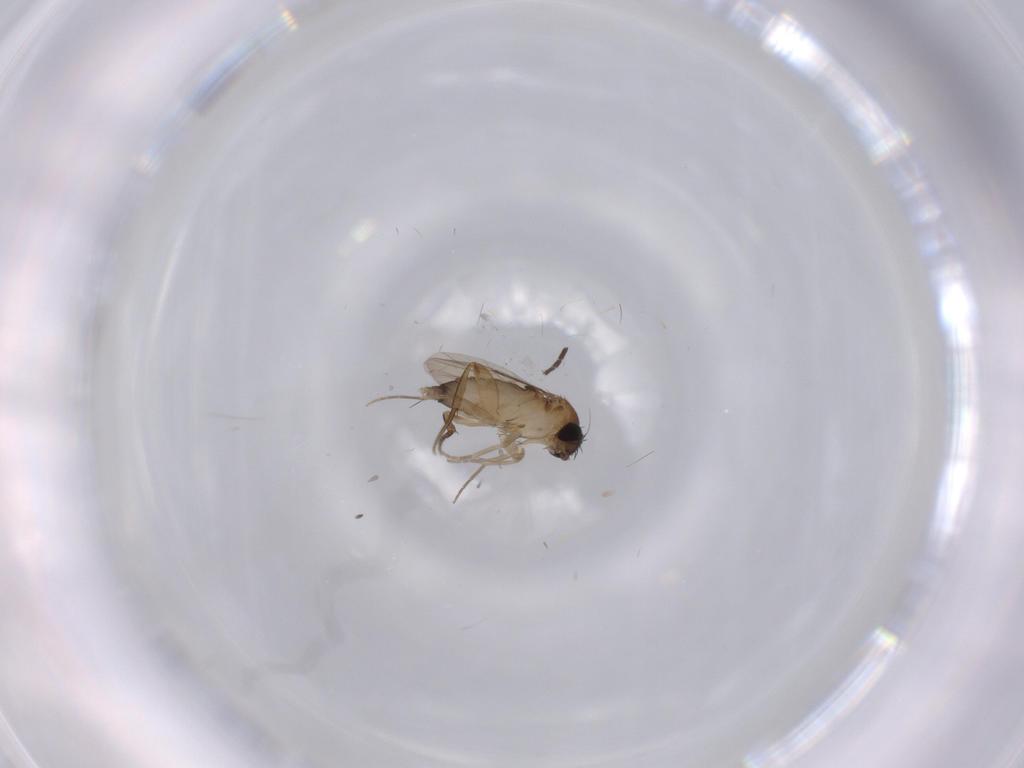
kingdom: Animalia
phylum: Arthropoda
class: Insecta
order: Diptera
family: Phoridae
